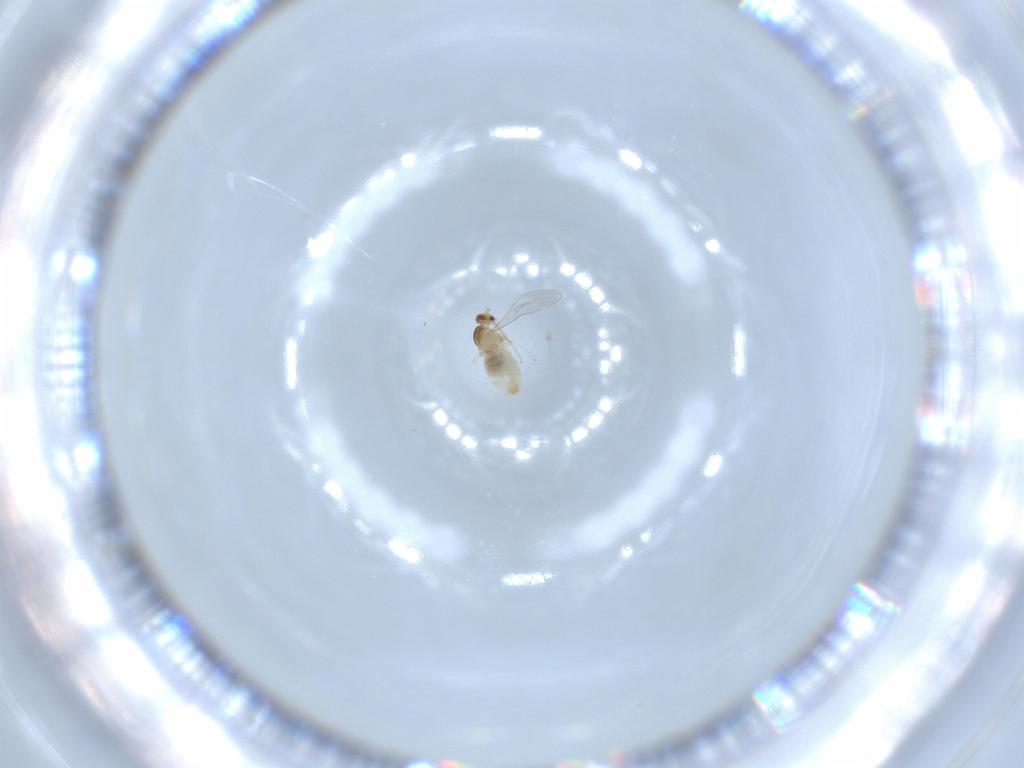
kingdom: Animalia
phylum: Arthropoda
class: Insecta
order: Diptera
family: Cecidomyiidae
